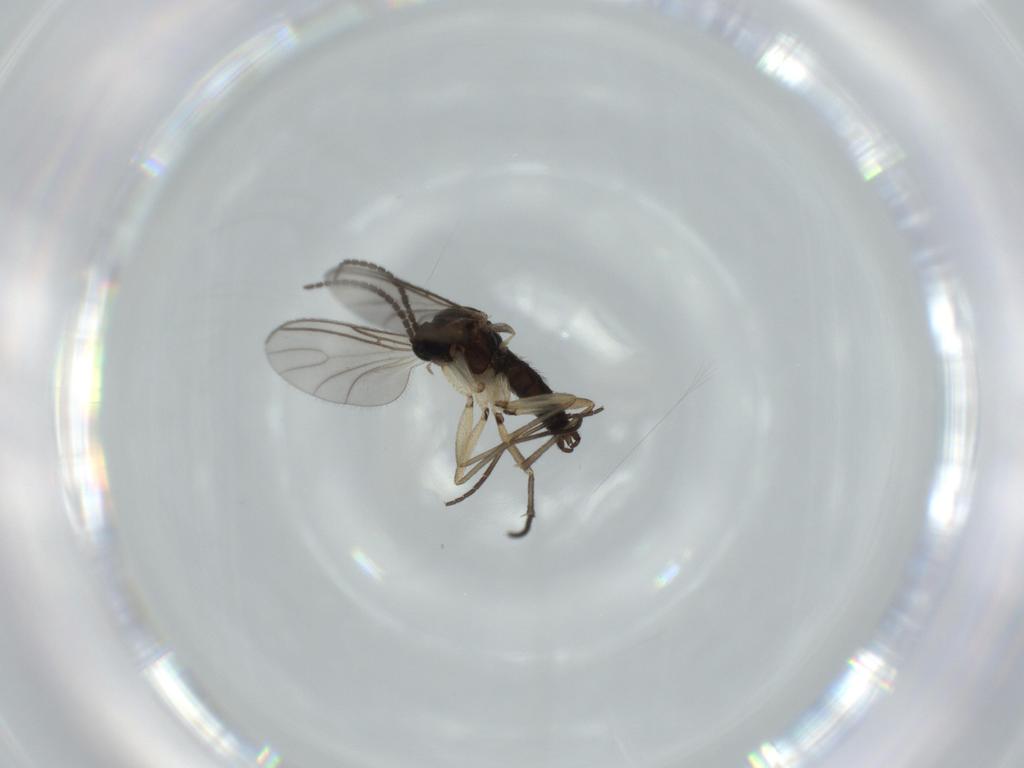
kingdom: Animalia
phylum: Arthropoda
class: Insecta
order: Diptera
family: Sciaridae
